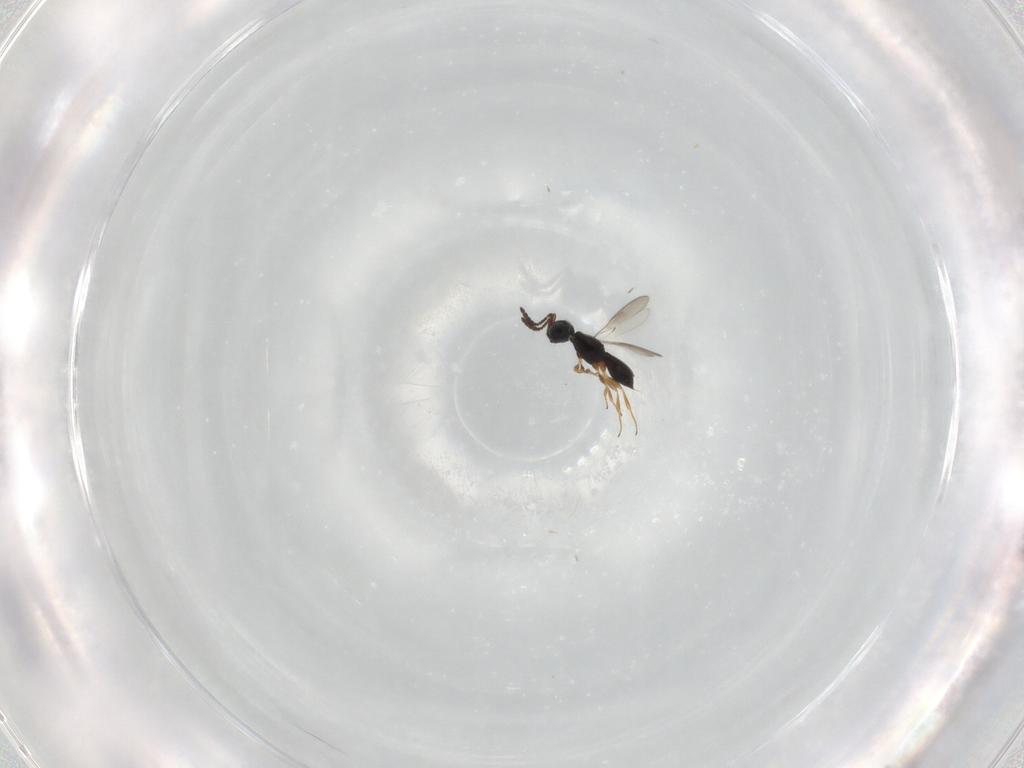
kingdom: Animalia
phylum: Arthropoda
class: Insecta
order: Hymenoptera
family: Scelionidae
